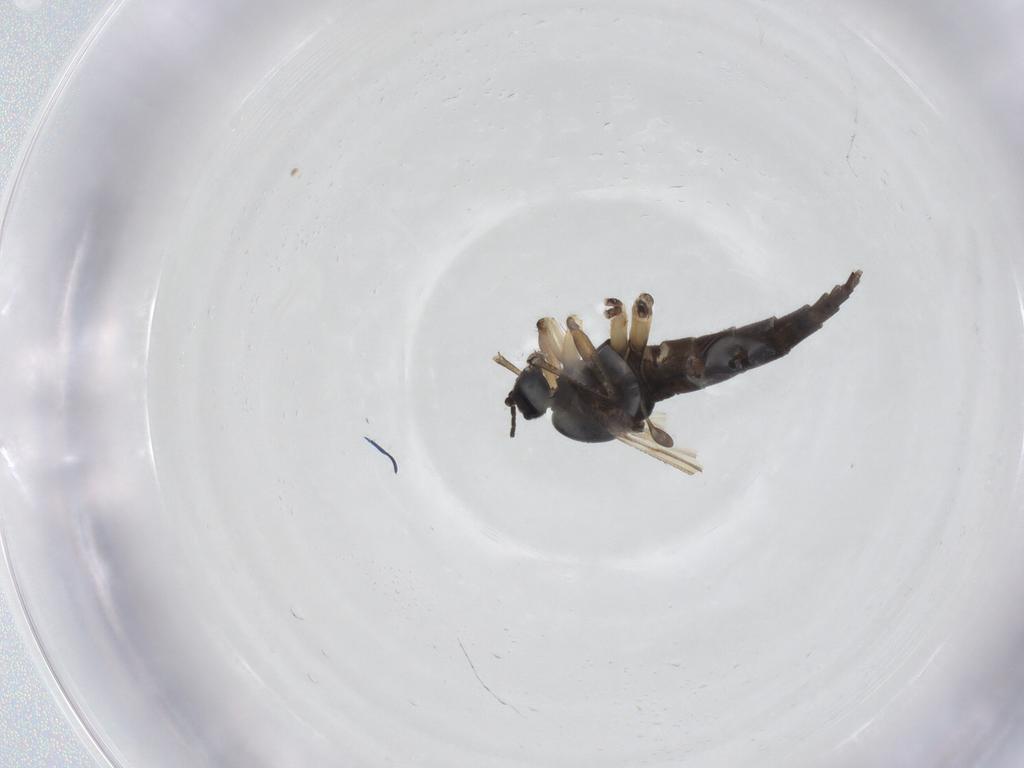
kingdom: Animalia
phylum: Arthropoda
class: Insecta
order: Diptera
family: Sciaridae
